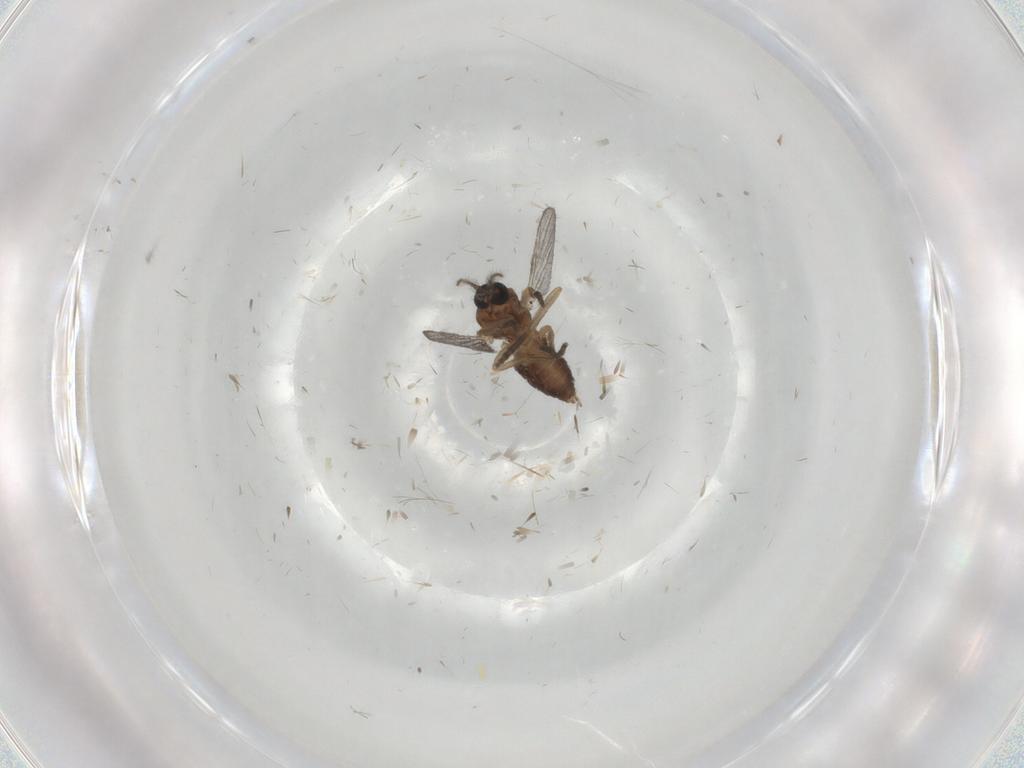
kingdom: Animalia
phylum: Arthropoda
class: Insecta
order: Diptera
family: Ceratopogonidae
